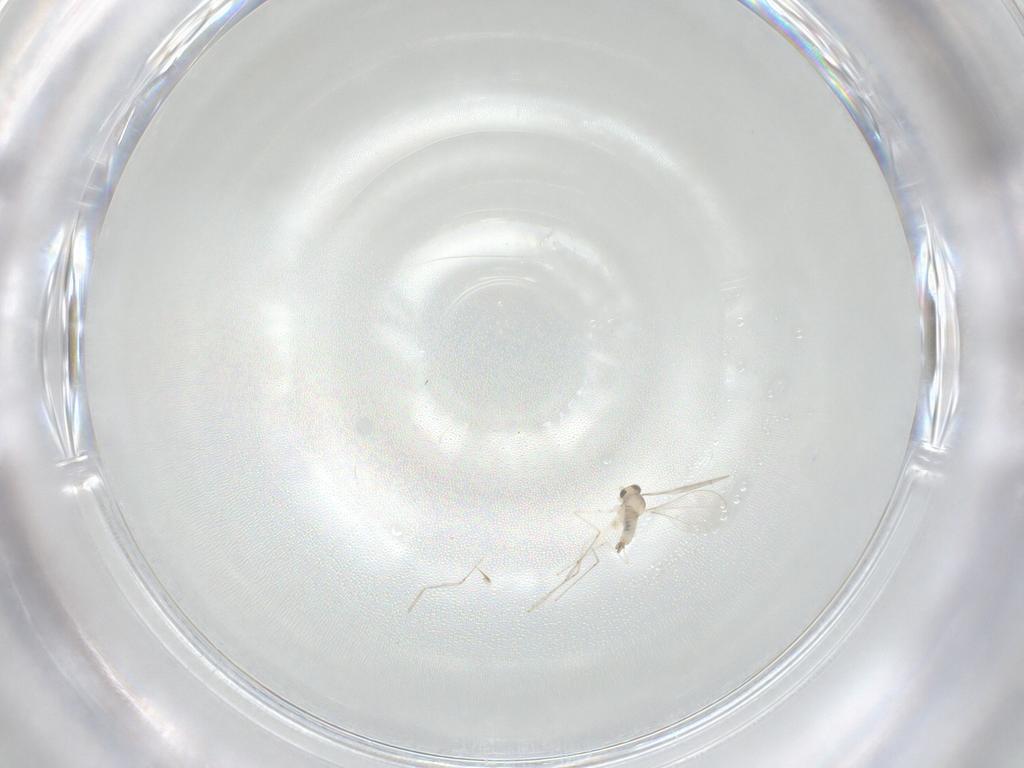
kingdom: Animalia
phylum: Arthropoda
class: Insecta
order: Diptera
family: Cecidomyiidae
